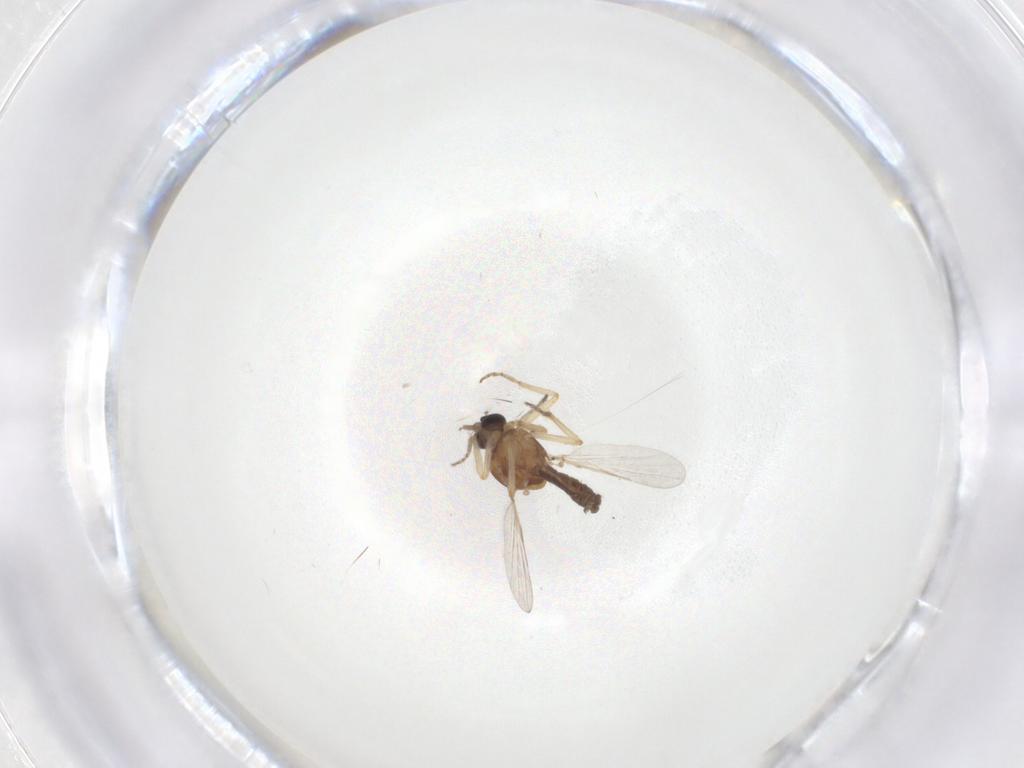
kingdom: Animalia
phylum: Arthropoda
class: Insecta
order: Diptera
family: Ceratopogonidae
